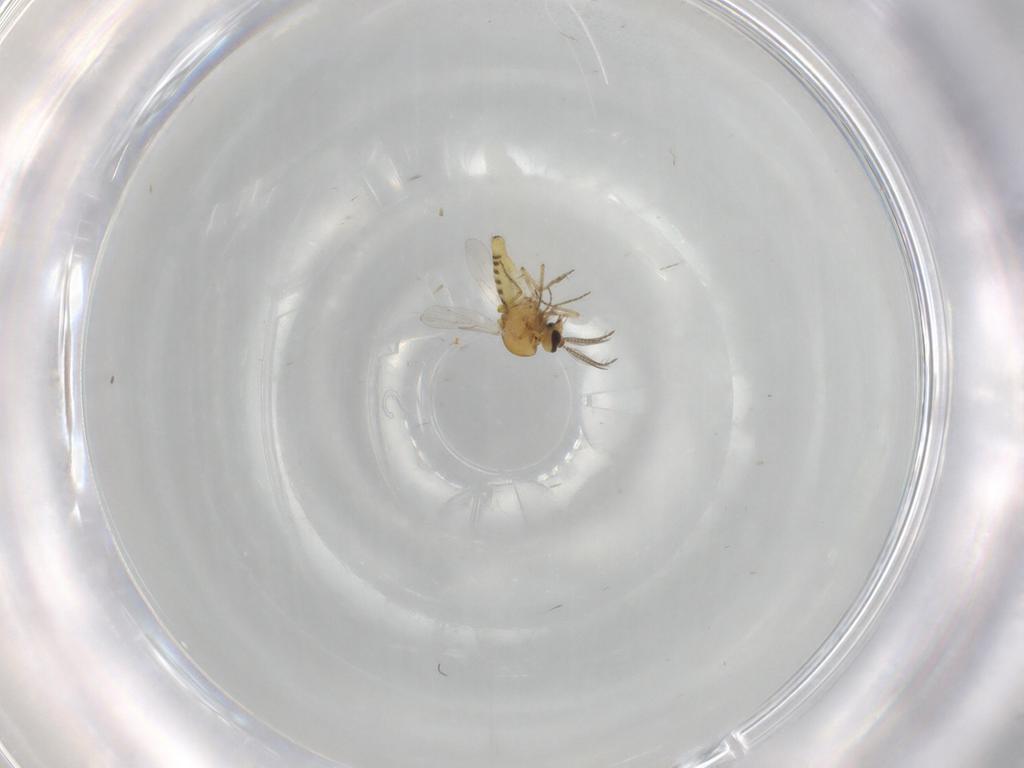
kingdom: Animalia
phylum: Arthropoda
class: Insecta
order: Diptera
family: Ceratopogonidae
